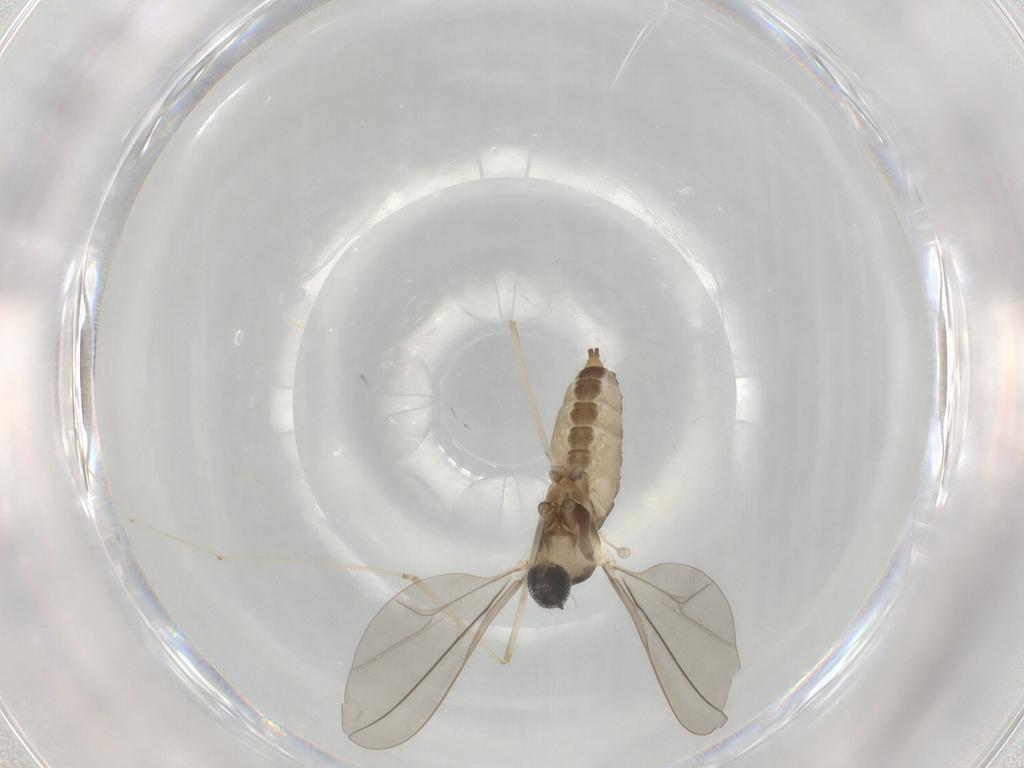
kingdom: Animalia
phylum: Arthropoda
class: Insecta
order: Diptera
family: Cecidomyiidae
